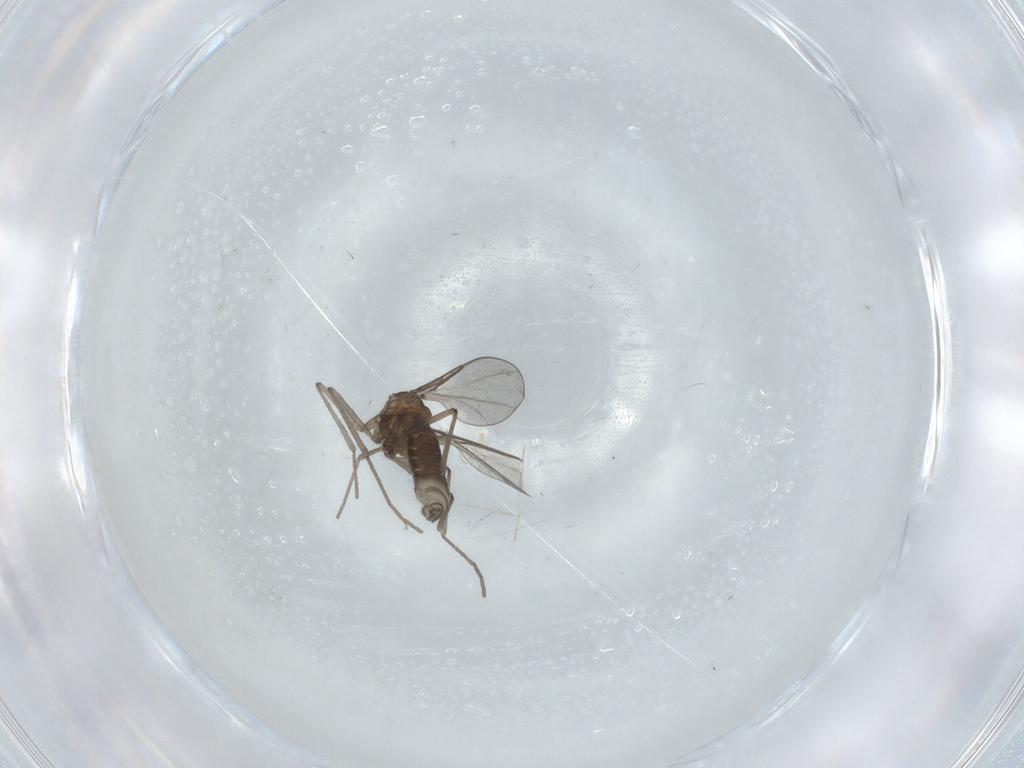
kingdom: Animalia
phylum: Arthropoda
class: Insecta
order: Diptera
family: Cecidomyiidae
